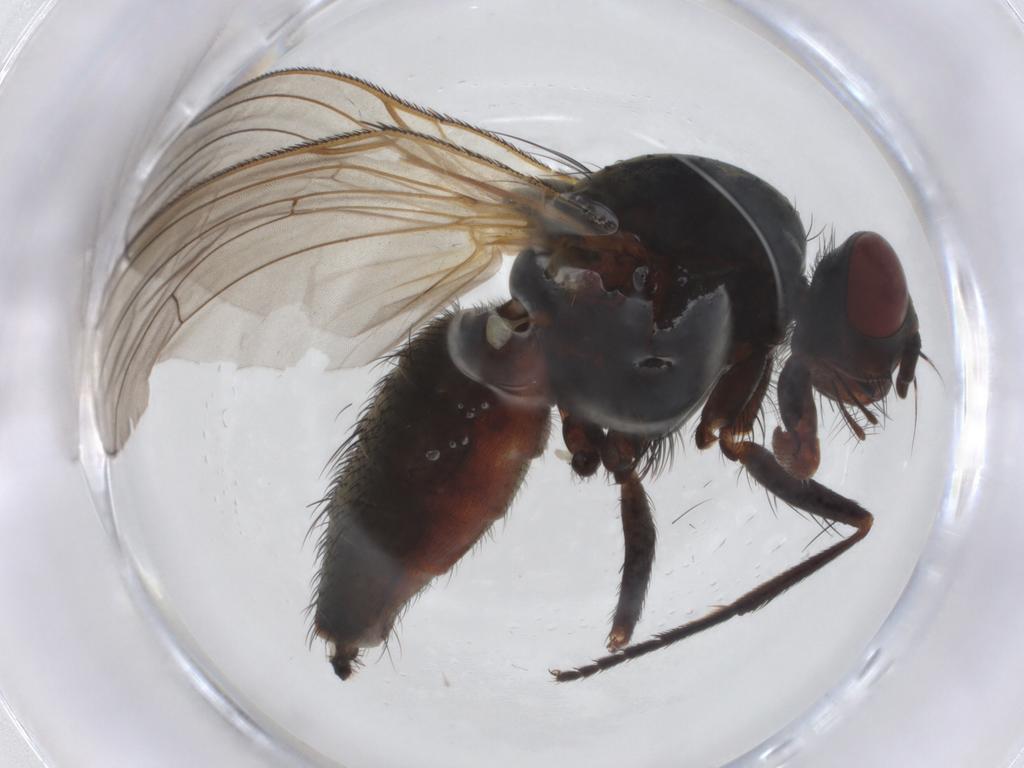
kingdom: Animalia
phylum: Arthropoda
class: Insecta
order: Diptera
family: Anthomyiidae
